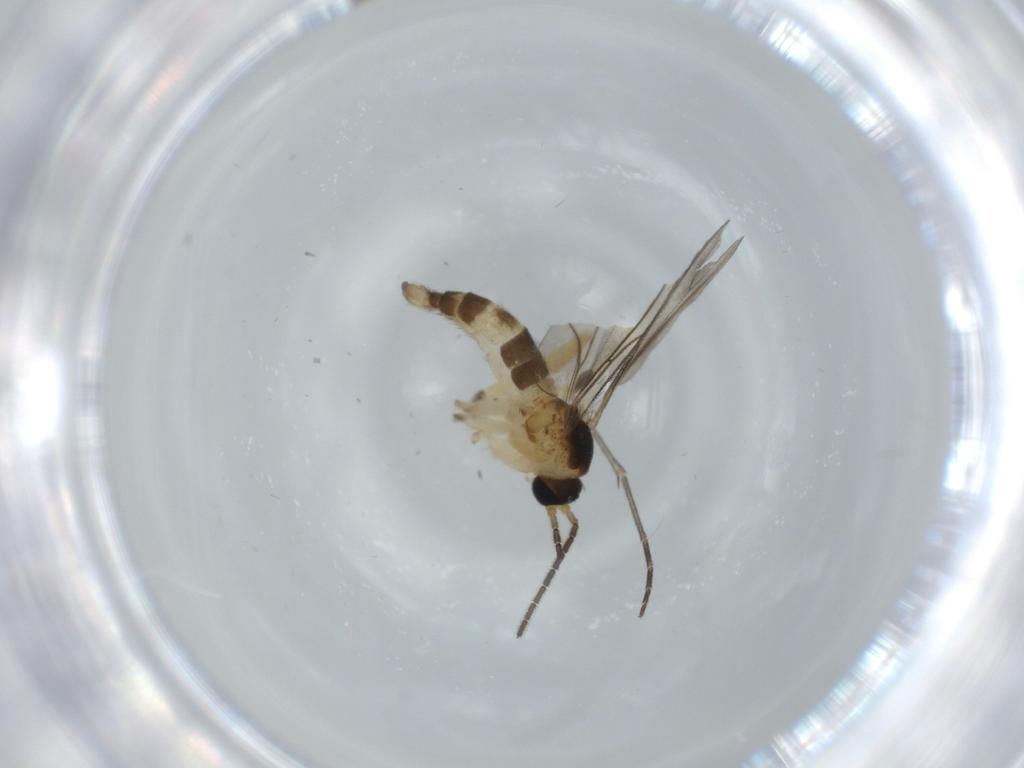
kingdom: Animalia
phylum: Arthropoda
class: Insecta
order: Diptera
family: Sciaridae
